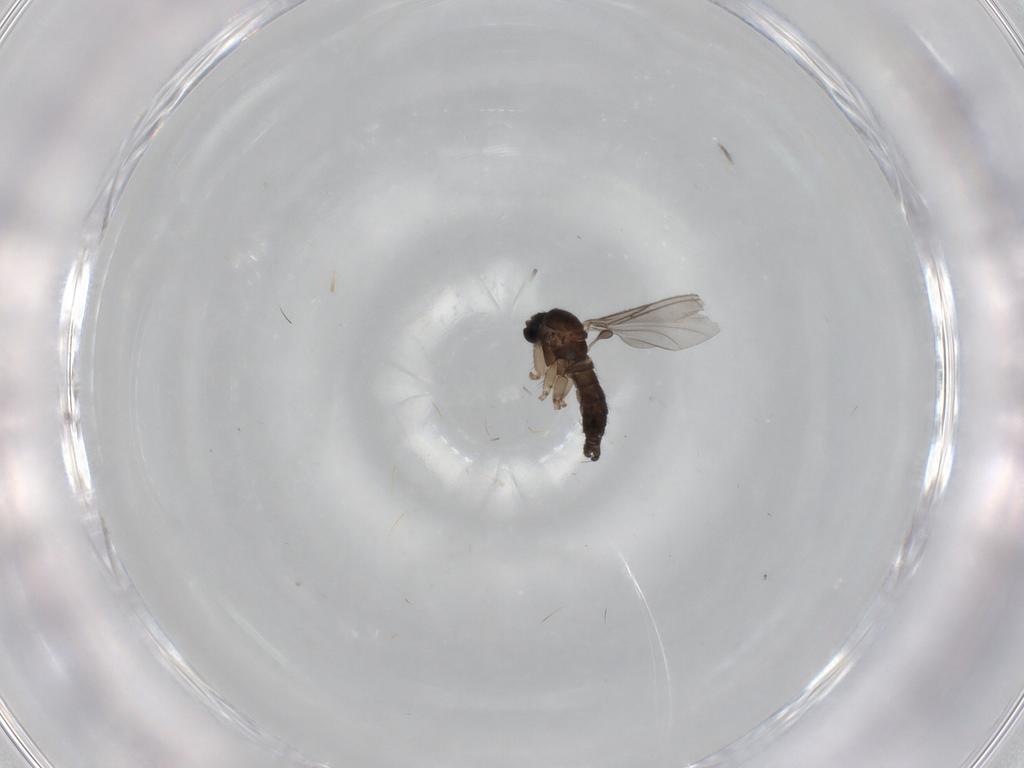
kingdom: Animalia
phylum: Arthropoda
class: Insecta
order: Diptera
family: Sciaridae
